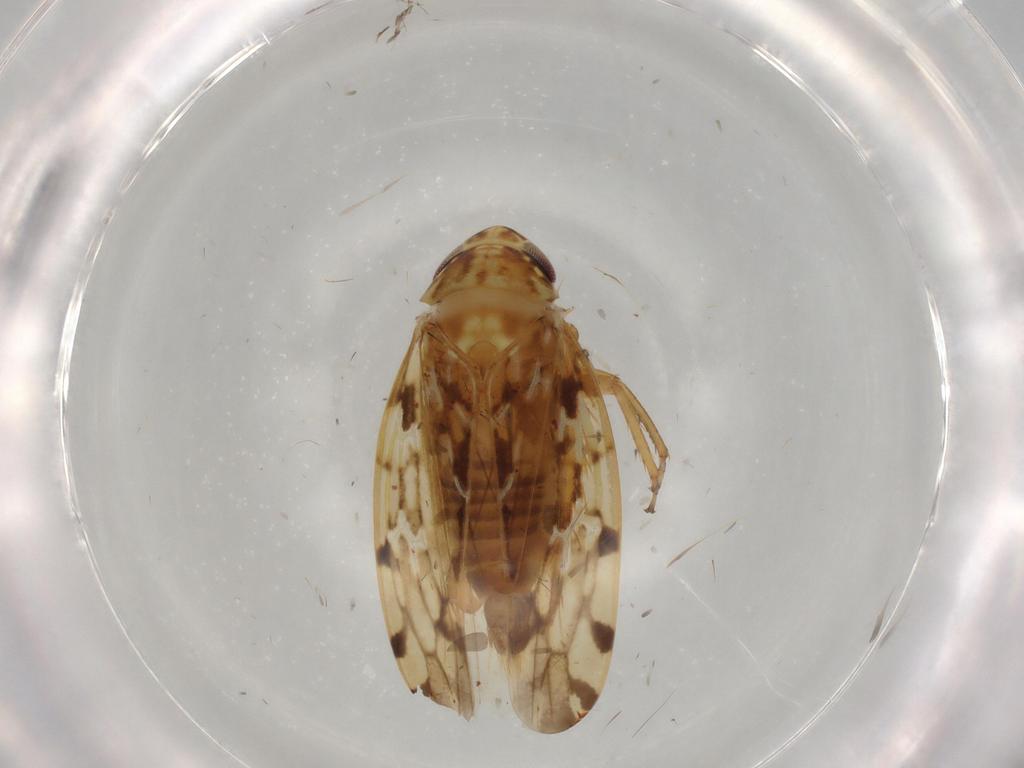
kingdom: Animalia
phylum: Arthropoda
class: Insecta
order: Hemiptera
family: Cicadellidae
